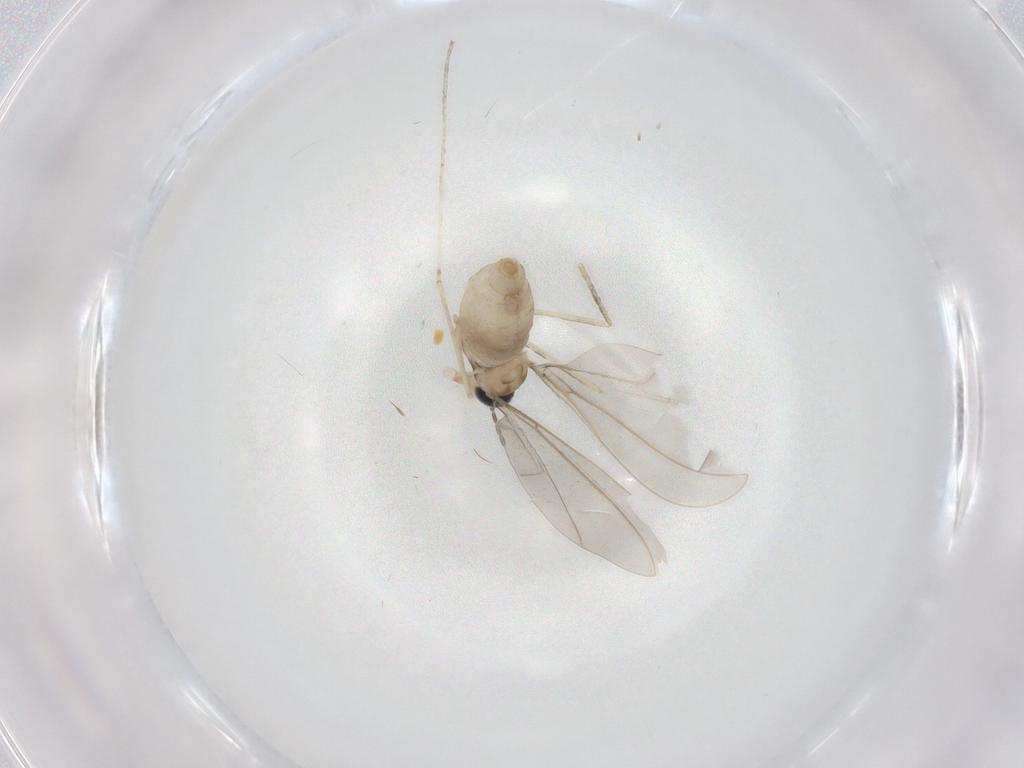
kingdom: Animalia
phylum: Arthropoda
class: Insecta
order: Diptera
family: Cecidomyiidae
